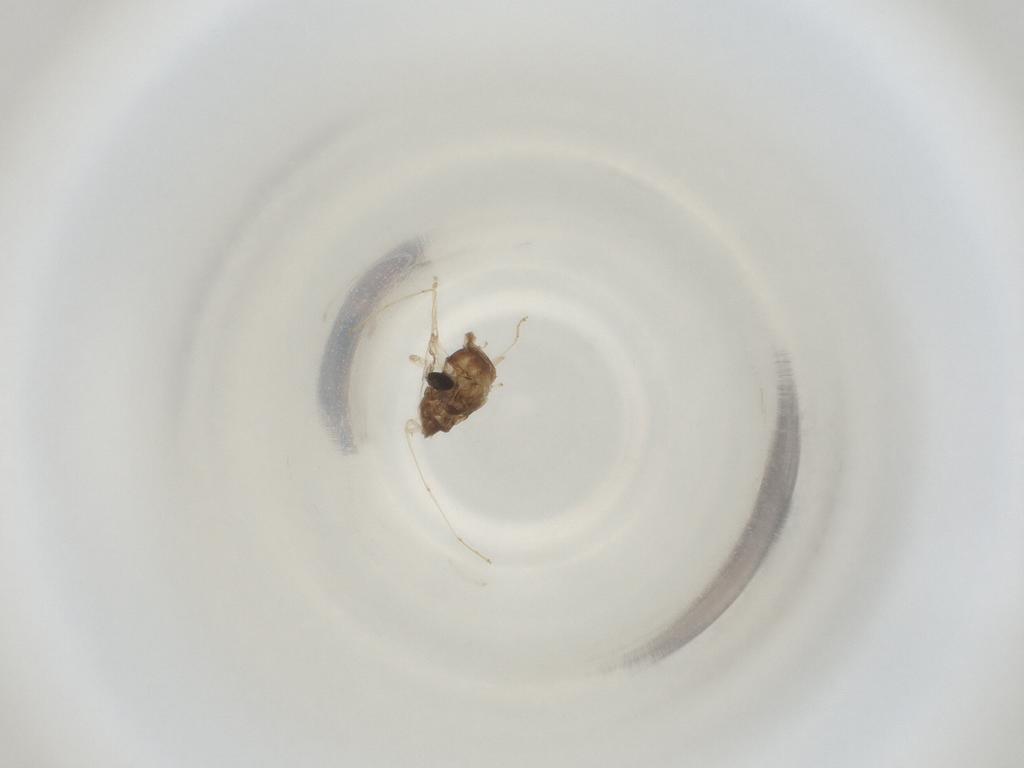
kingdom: Animalia
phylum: Arthropoda
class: Insecta
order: Diptera
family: Cecidomyiidae
